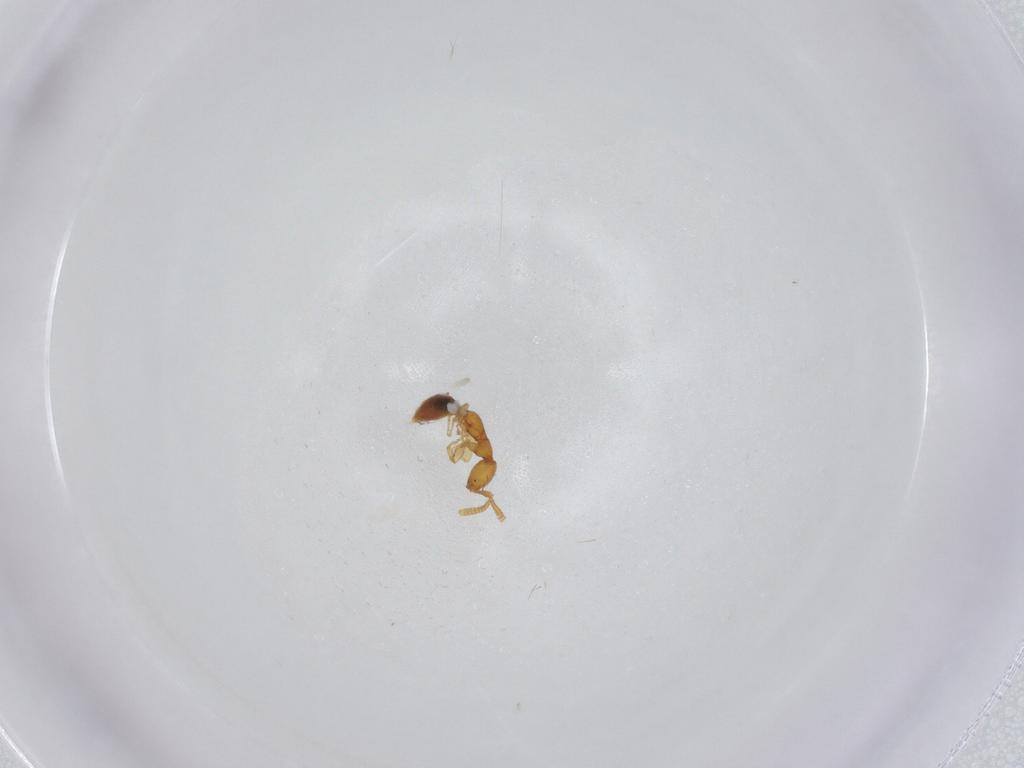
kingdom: Animalia
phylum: Arthropoda
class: Insecta
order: Hymenoptera
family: Bethylidae
